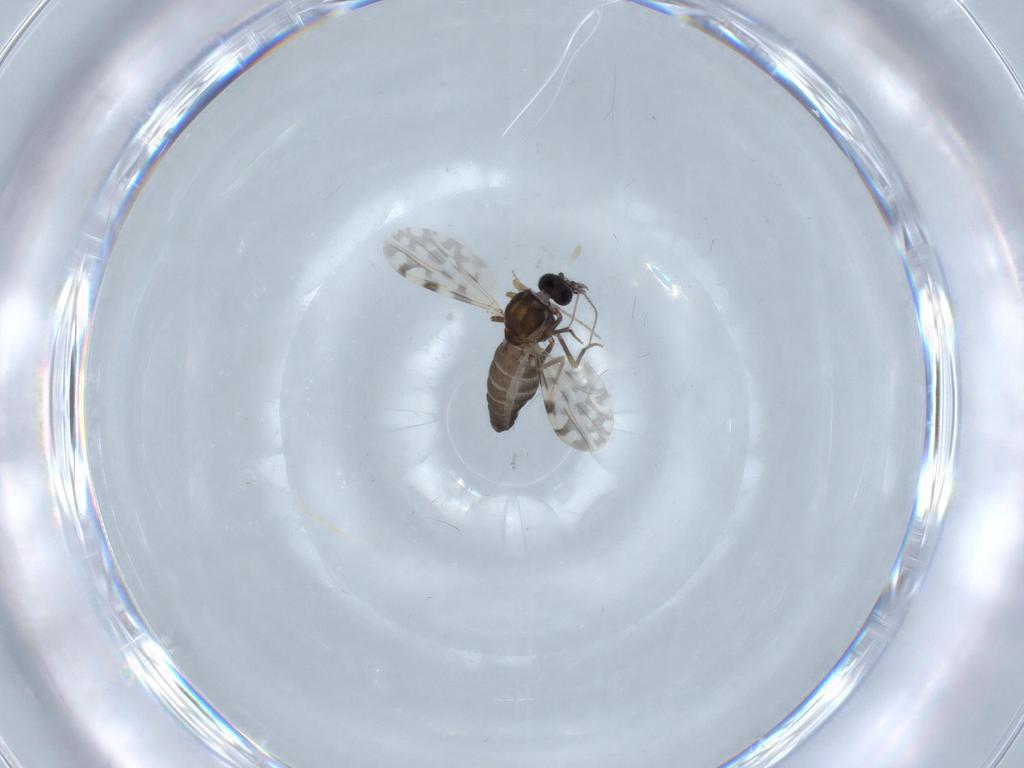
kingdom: Animalia
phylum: Arthropoda
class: Insecta
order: Diptera
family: Ceratopogonidae
